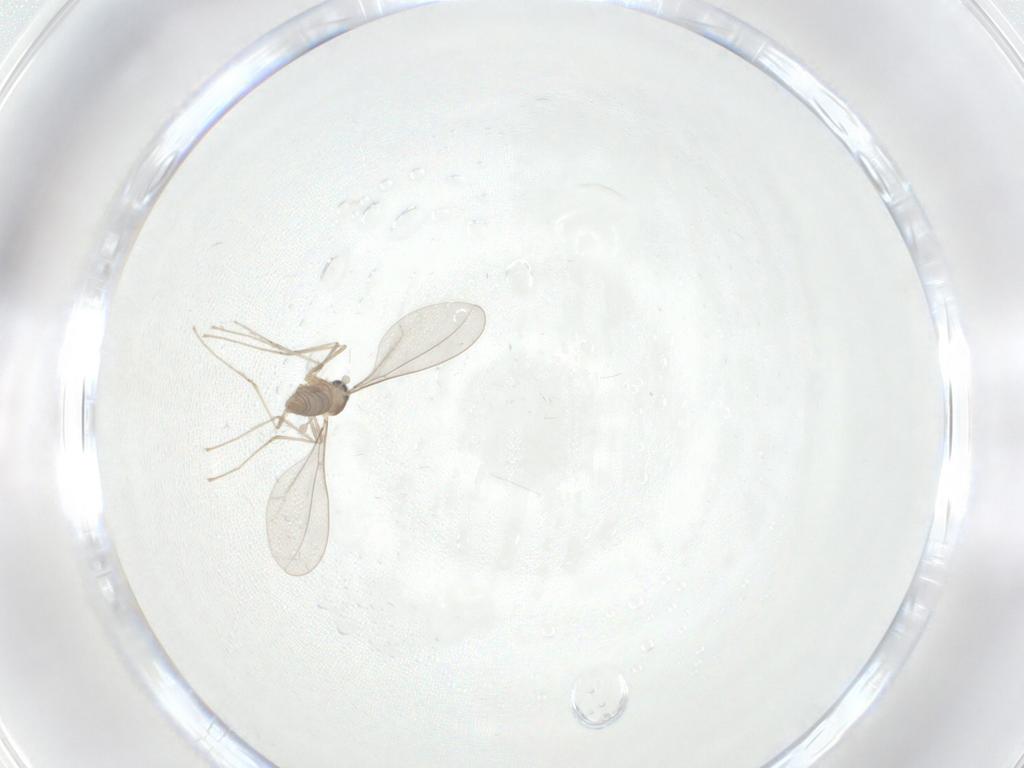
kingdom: Animalia
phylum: Arthropoda
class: Insecta
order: Diptera
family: Cecidomyiidae
